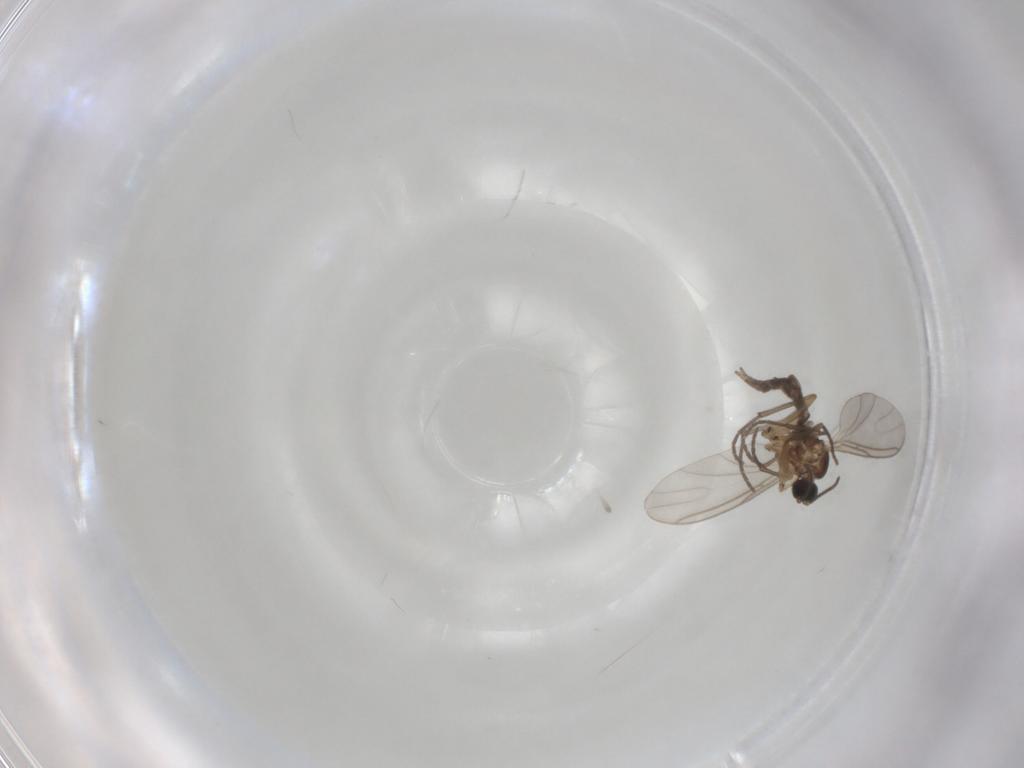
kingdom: Animalia
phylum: Arthropoda
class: Insecta
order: Diptera
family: Sciaridae
